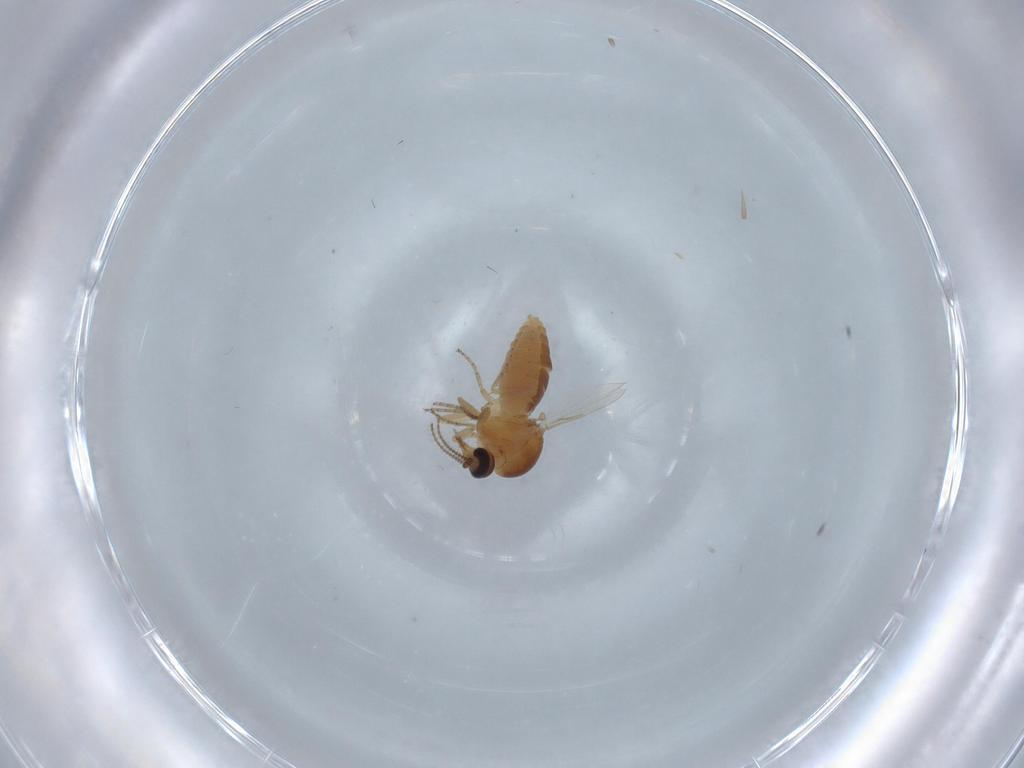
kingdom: Animalia
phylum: Arthropoda
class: Insecta
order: Diptera
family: Ceratopogonidae
